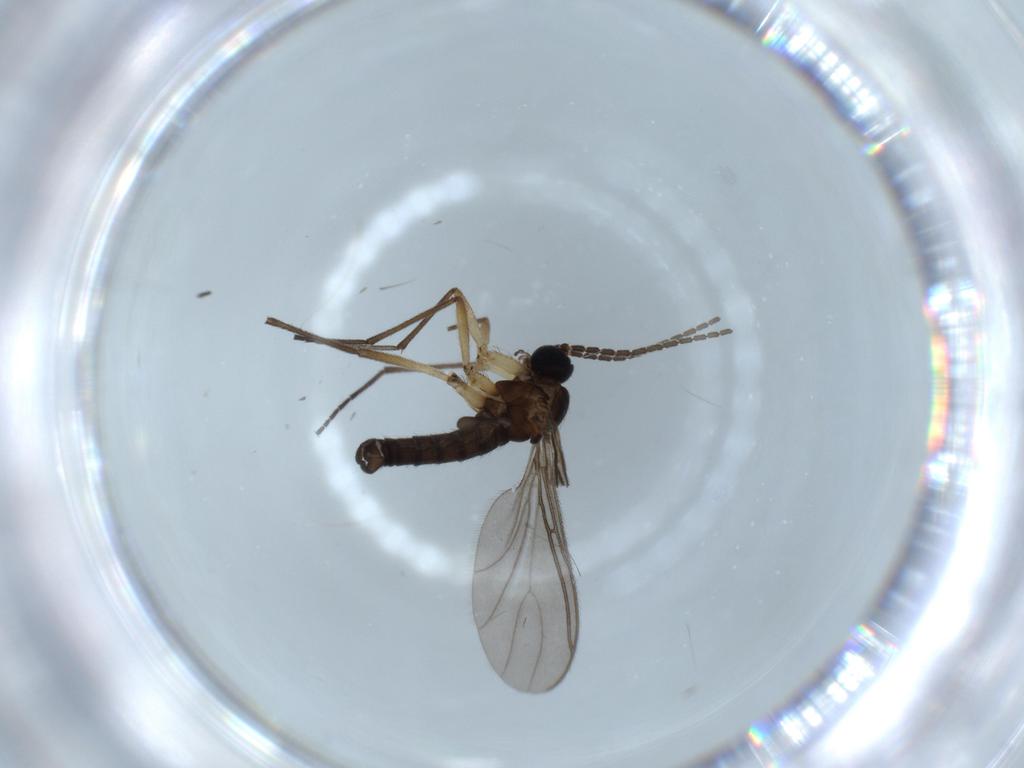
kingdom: Animalia
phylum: Arthropoda
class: Insecta
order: Diptera
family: Sciaridae
